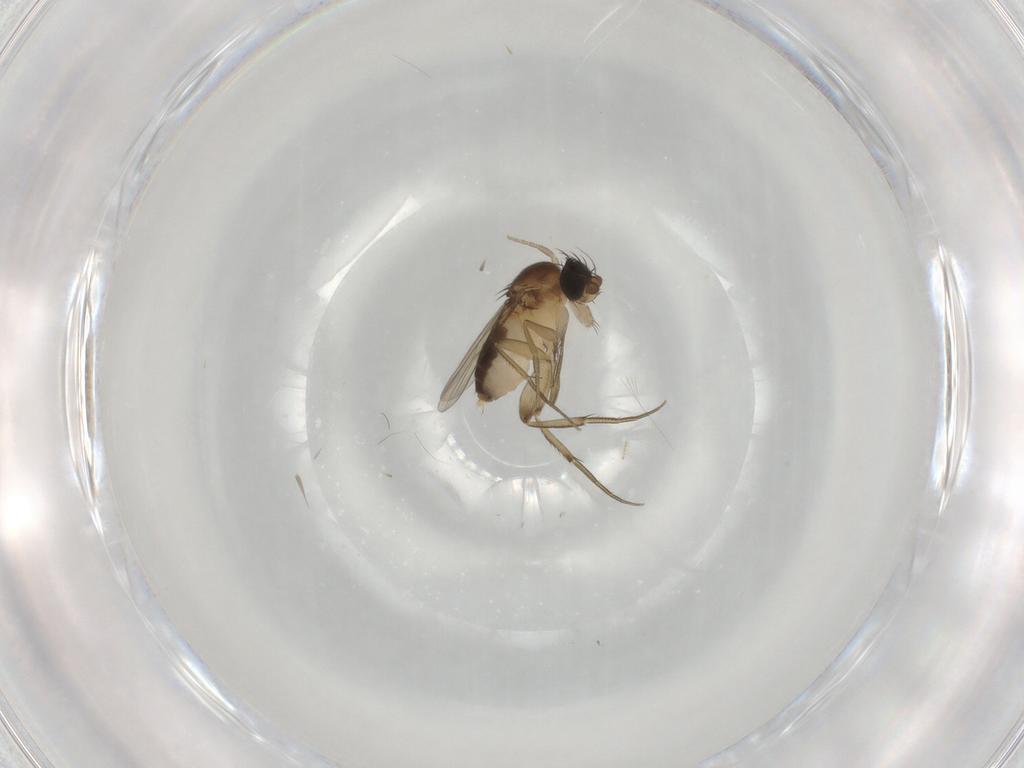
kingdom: Animalia
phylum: Arthropoda
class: Insecta
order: Diptera
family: Phoridae
